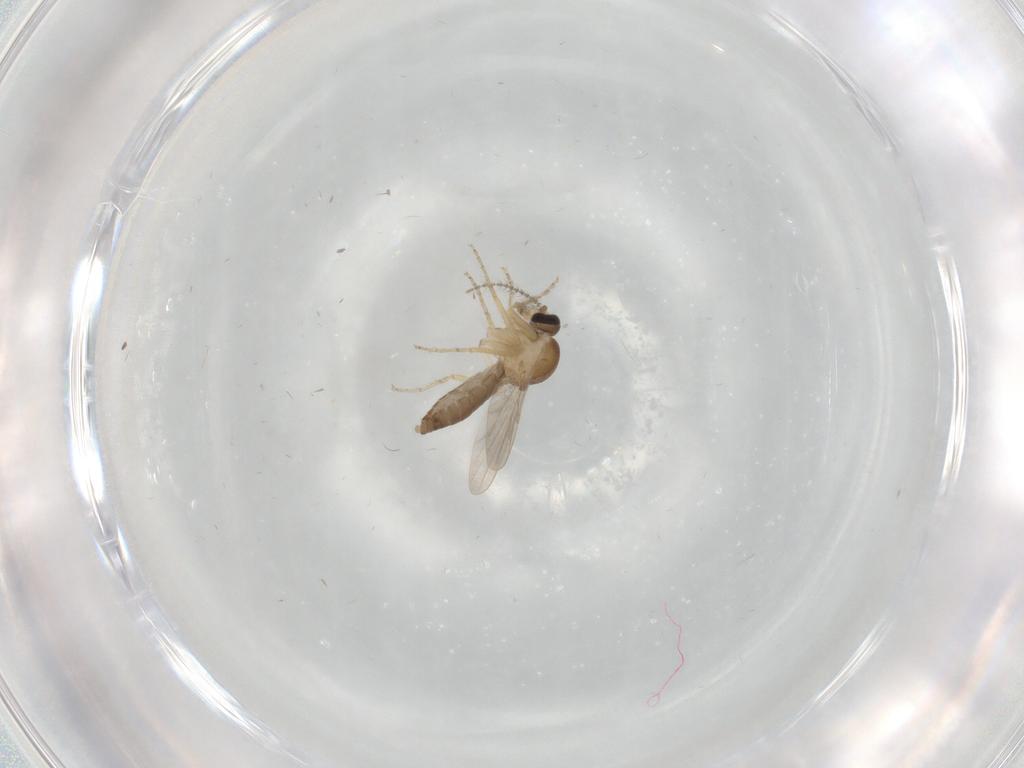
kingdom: Animalia
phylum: Arthropoda
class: Insecta
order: Diptera
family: Ceratopogonidae
